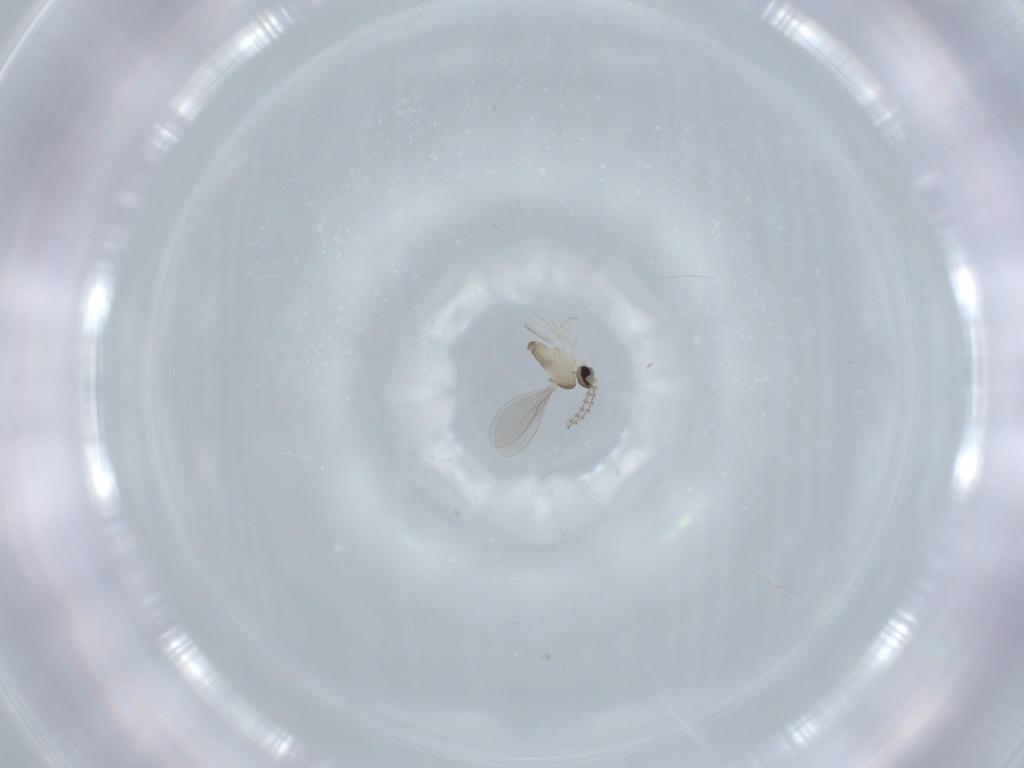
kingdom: Animalia
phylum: Arthropoda
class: Insecta
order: Diptera
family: Cecidomyiidae
